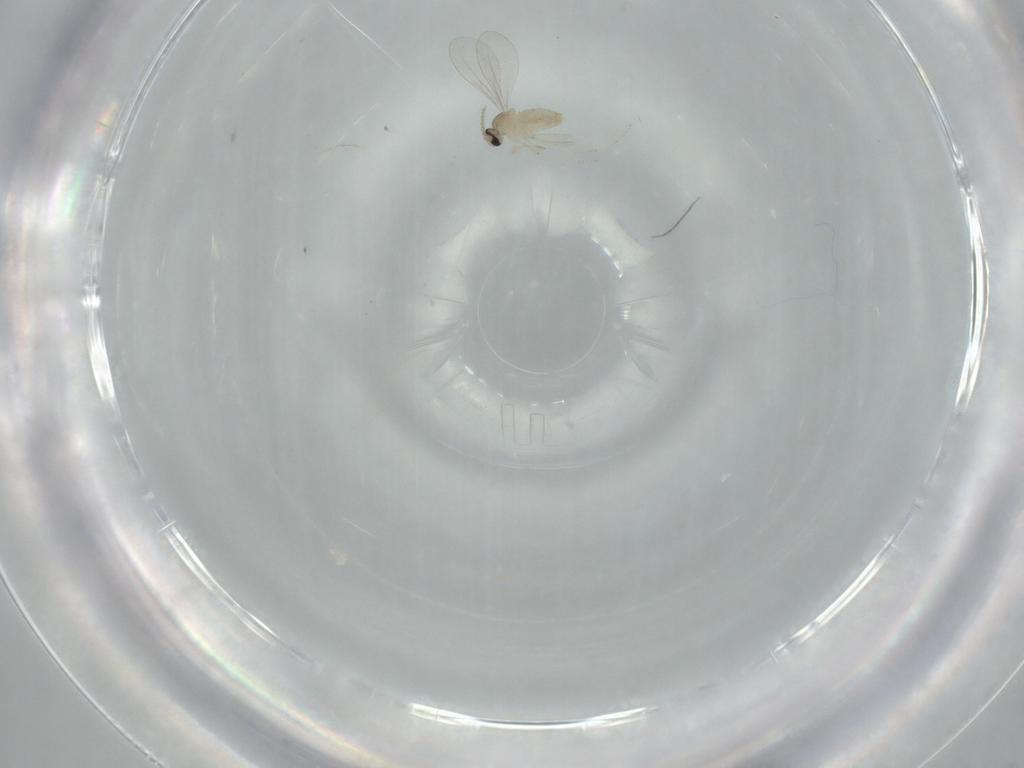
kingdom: Animalia
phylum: Arthropoda
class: Insecta
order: Diptera
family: Cecidomyiidae
